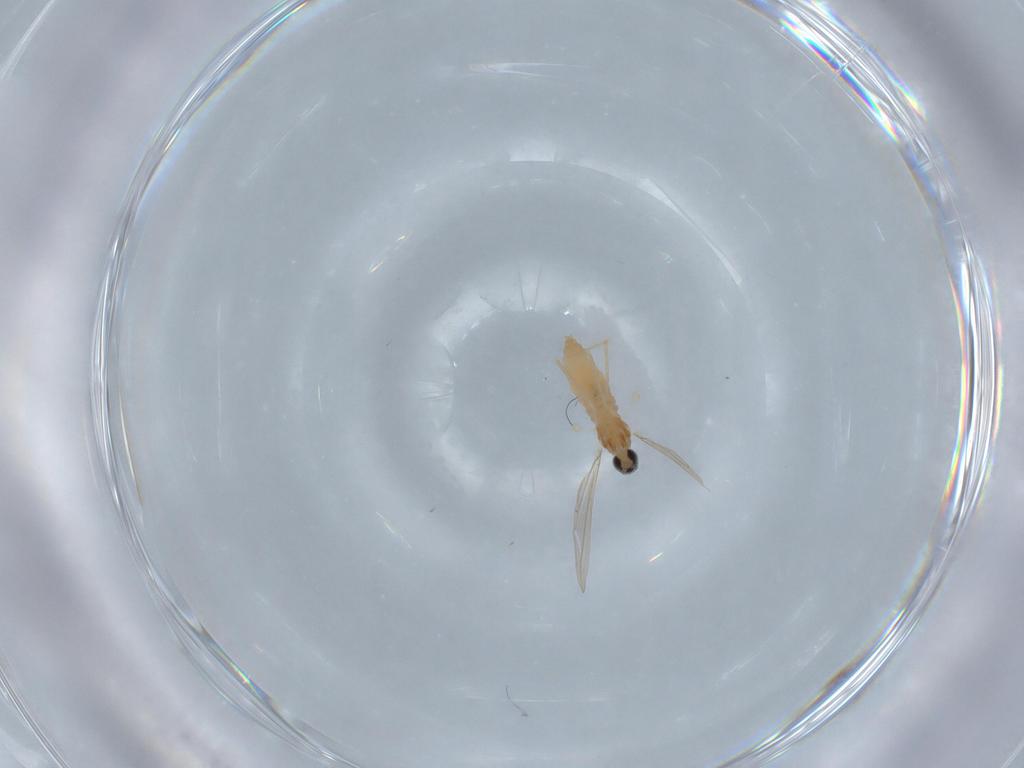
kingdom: Animalia
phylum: Arthropoda
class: Insecta
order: Diptera
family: Cecidomyiidae
